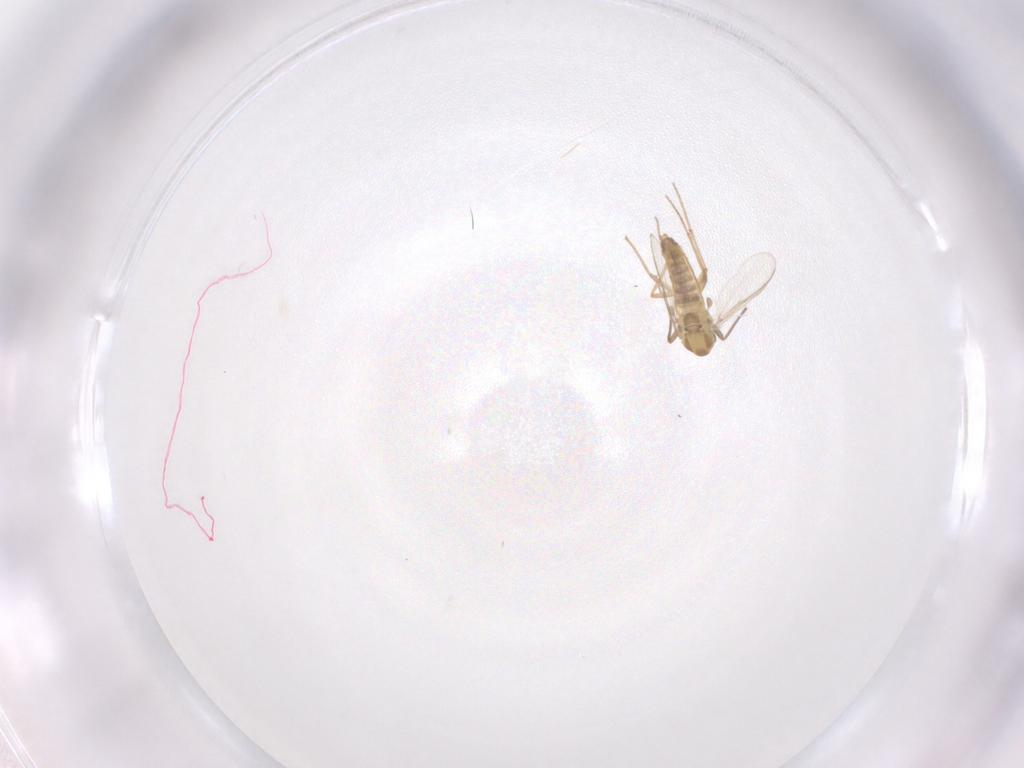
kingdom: Animalia
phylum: Arthropoda
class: Insecta
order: Diptera
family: Chironomidae
